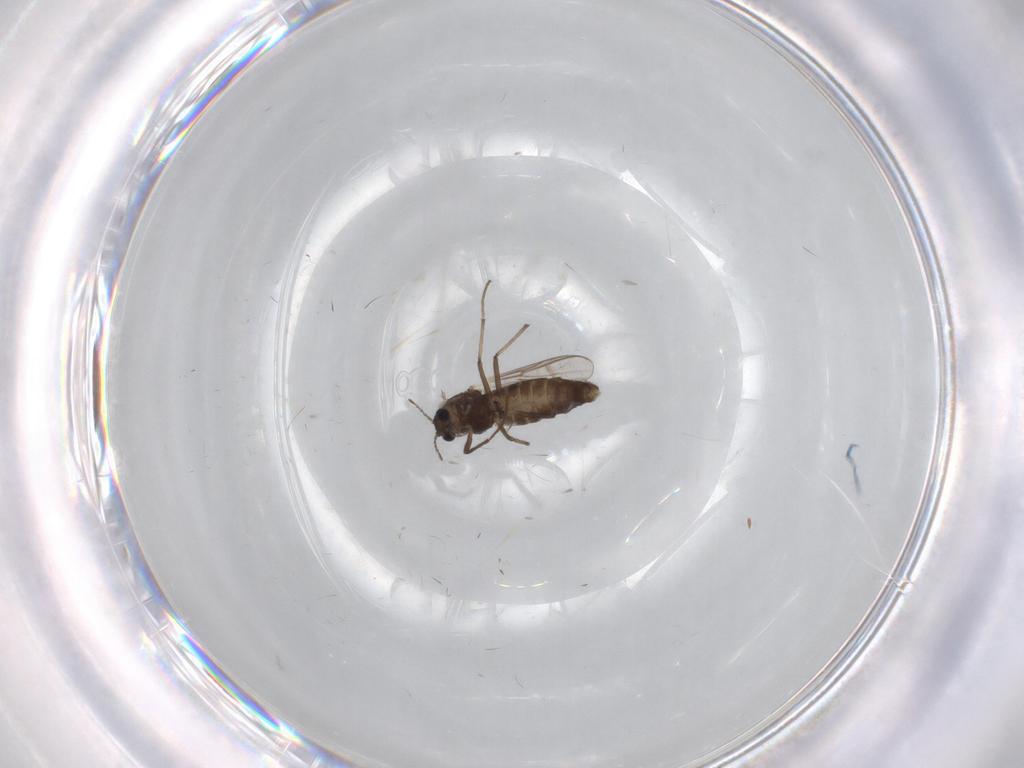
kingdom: Animalia
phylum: Arthropoda
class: Insecta
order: Diptera
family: Chironomidae
